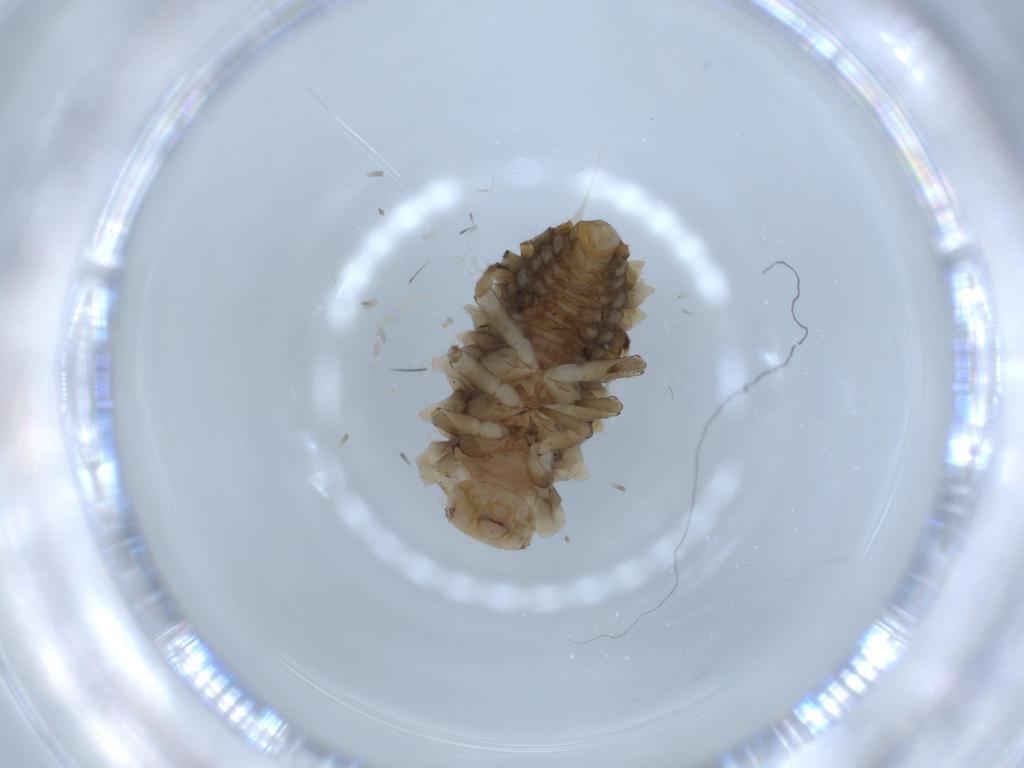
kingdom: Animalia
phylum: Arthropoda
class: Insecta
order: Coleoptera
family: Coccinellidae
